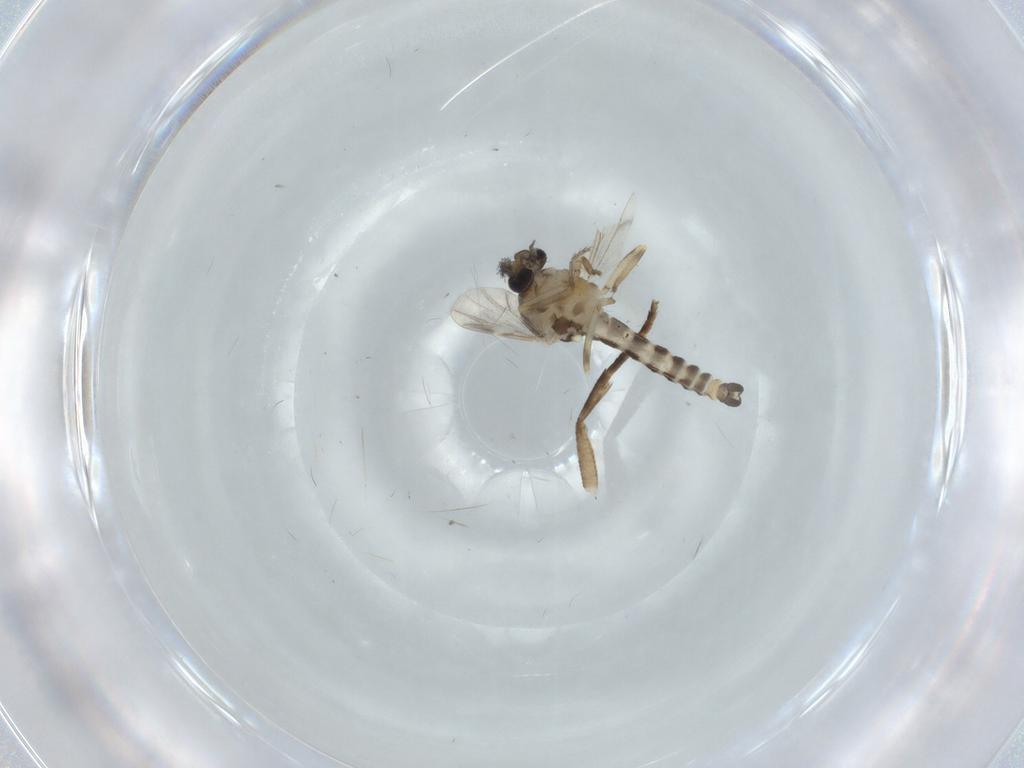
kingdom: Animalia
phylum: Arthropoda
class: Insecta
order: Diptera
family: Ceratopogonidae
